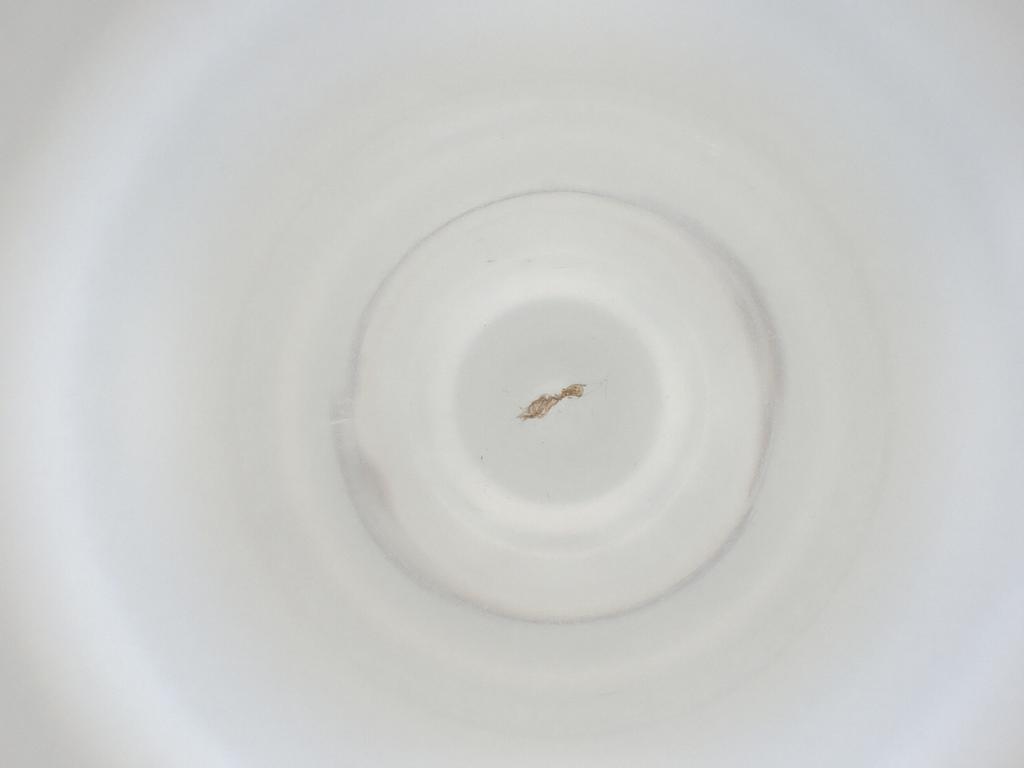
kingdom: Animalia
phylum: Arthropoda
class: Insecta
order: Diptera
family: Cecidomyiidae
